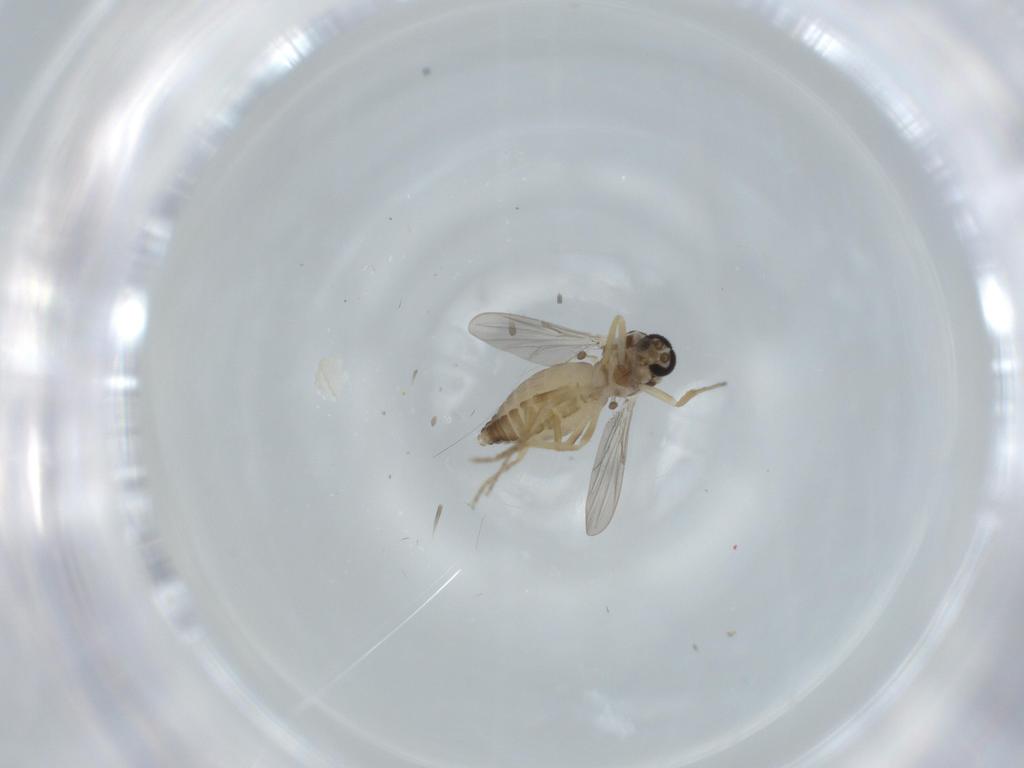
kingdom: Animalia
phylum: Arthropoda
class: Insecta
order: Diptera
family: Ceratopogonidae
